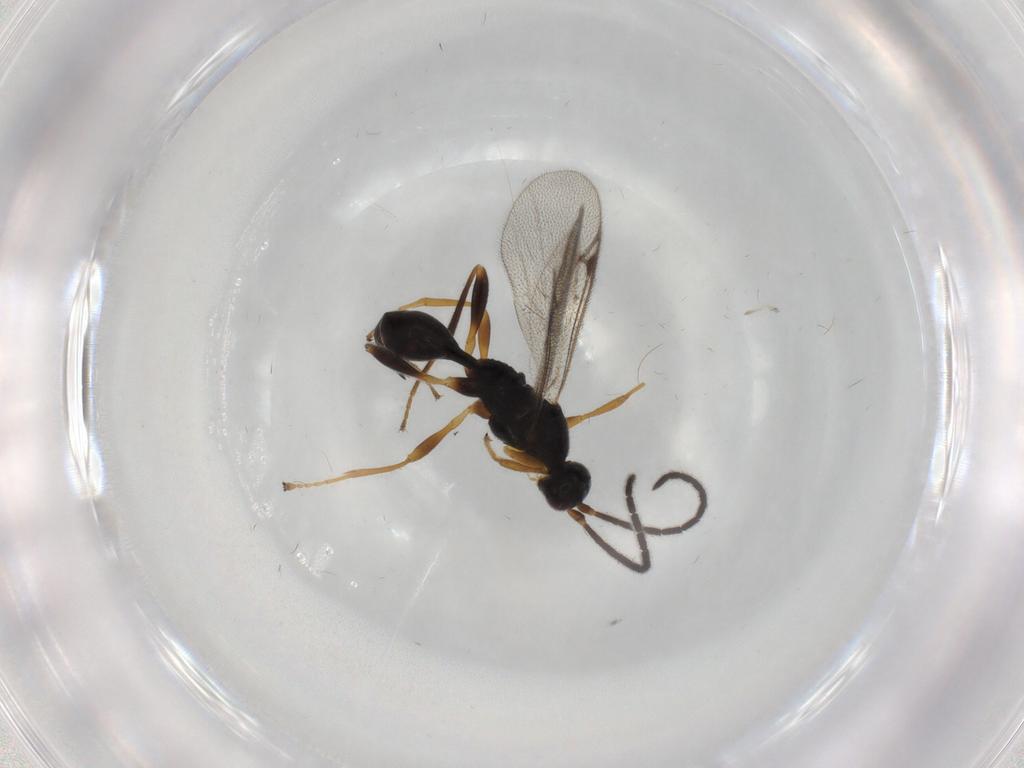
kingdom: Animalia
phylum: Arthropoda
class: Insecta
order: Hymenoptera
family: Proctotrupidae
